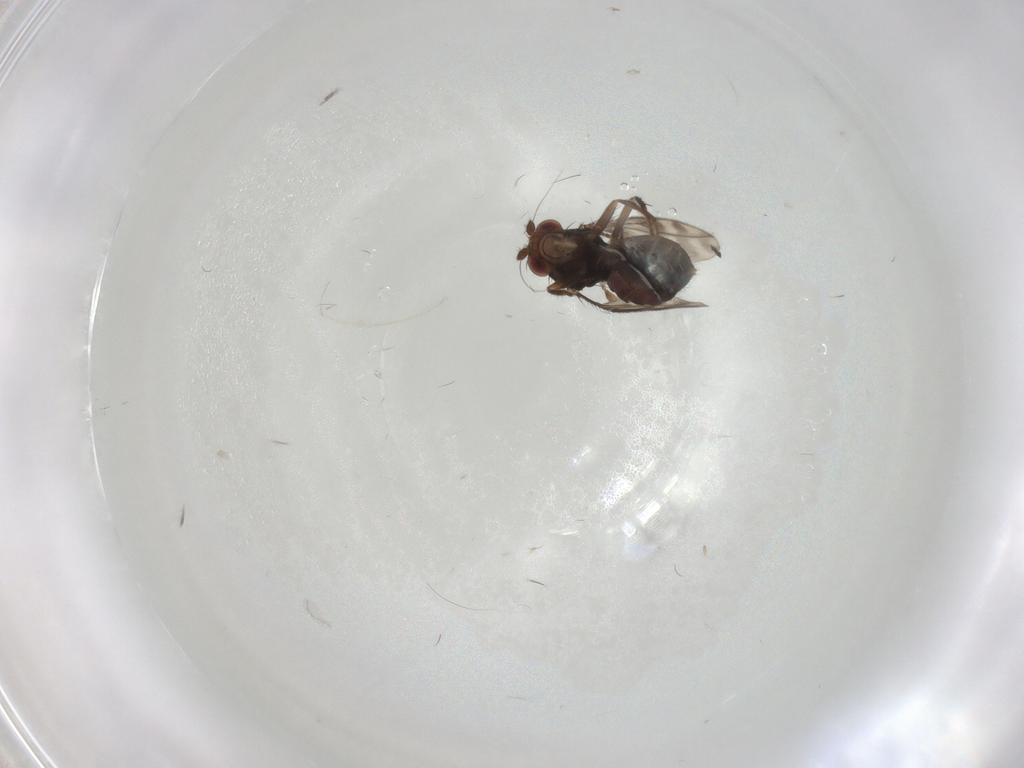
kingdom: Animalia
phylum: Arthropoda
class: Insecta
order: Diptera
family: Sphaeroceridae
